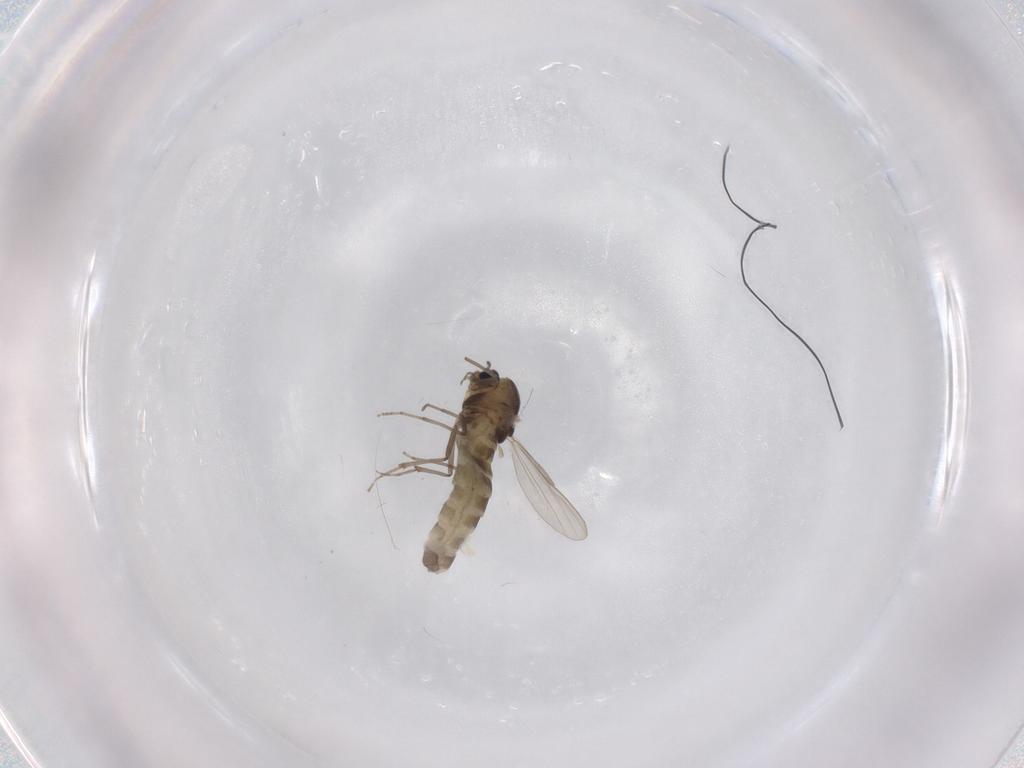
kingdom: Animalia
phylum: Arthropoda
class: Insecta
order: Diptera
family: Chironomidae
